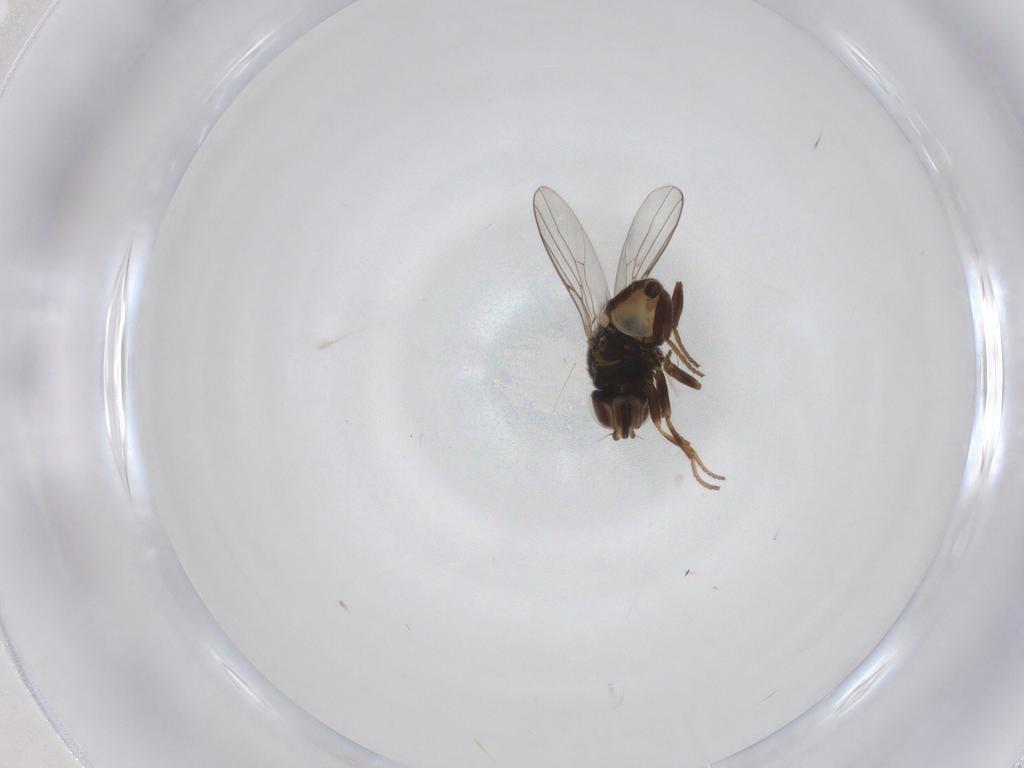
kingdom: Animalia
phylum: Arthropoda
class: Insecta
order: Diptera
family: Chloropidae
